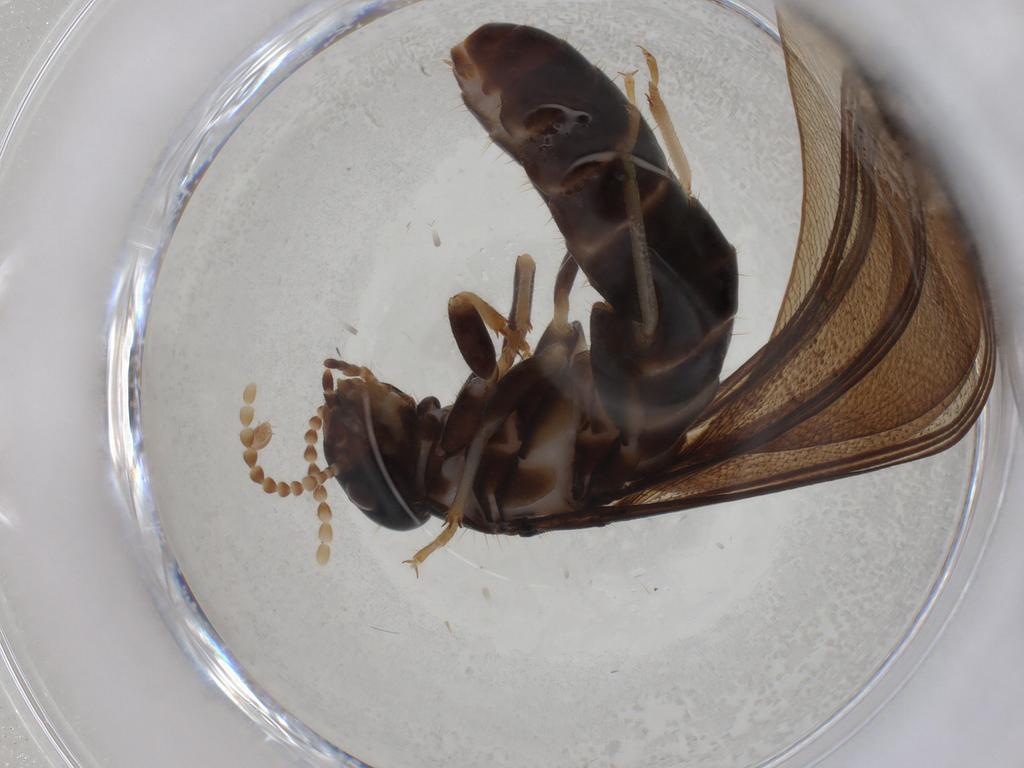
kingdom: Animalia
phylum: Arthropoda
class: Insecta
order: Blattodea
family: Kalotermitidae
